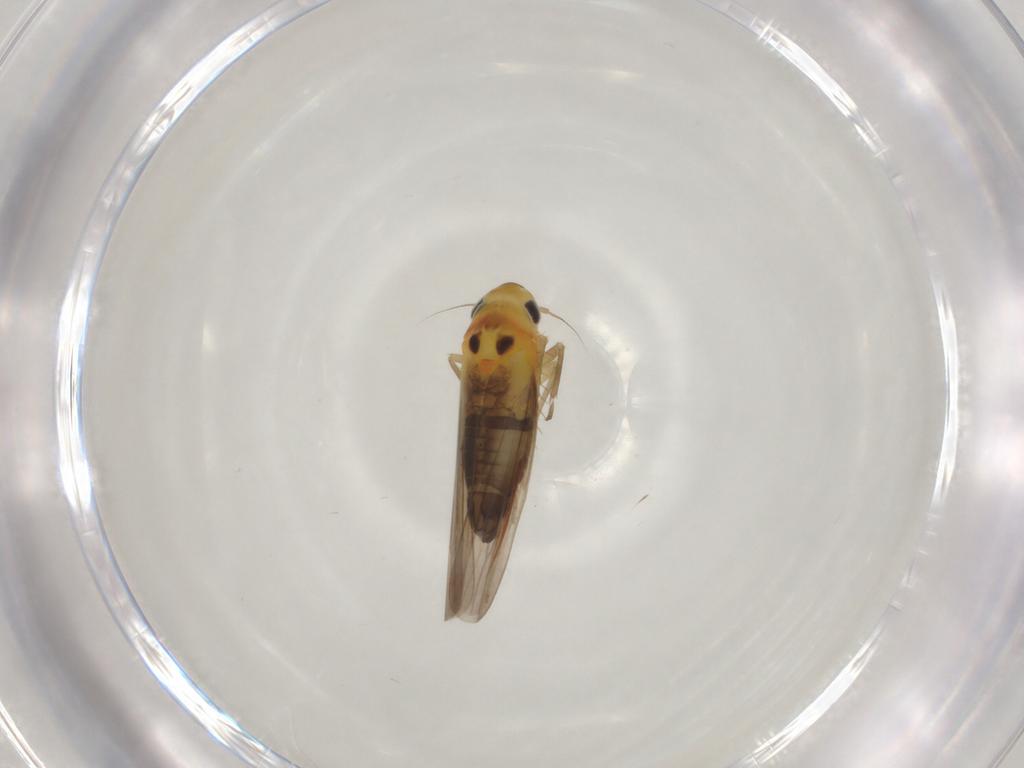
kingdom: Animalia
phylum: Arthropoda
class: Insecta
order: Hemiptera
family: Cicadellidae
